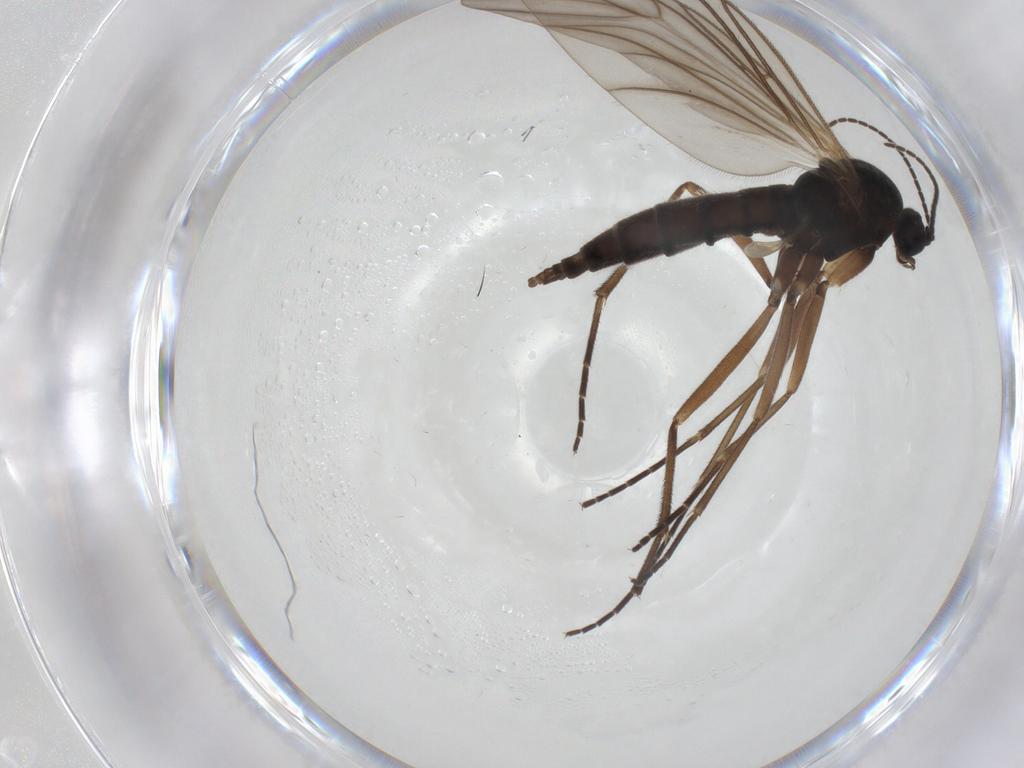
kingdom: Animalia
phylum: Arthropoda
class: Insecta
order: Diptera
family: Sciaridae
